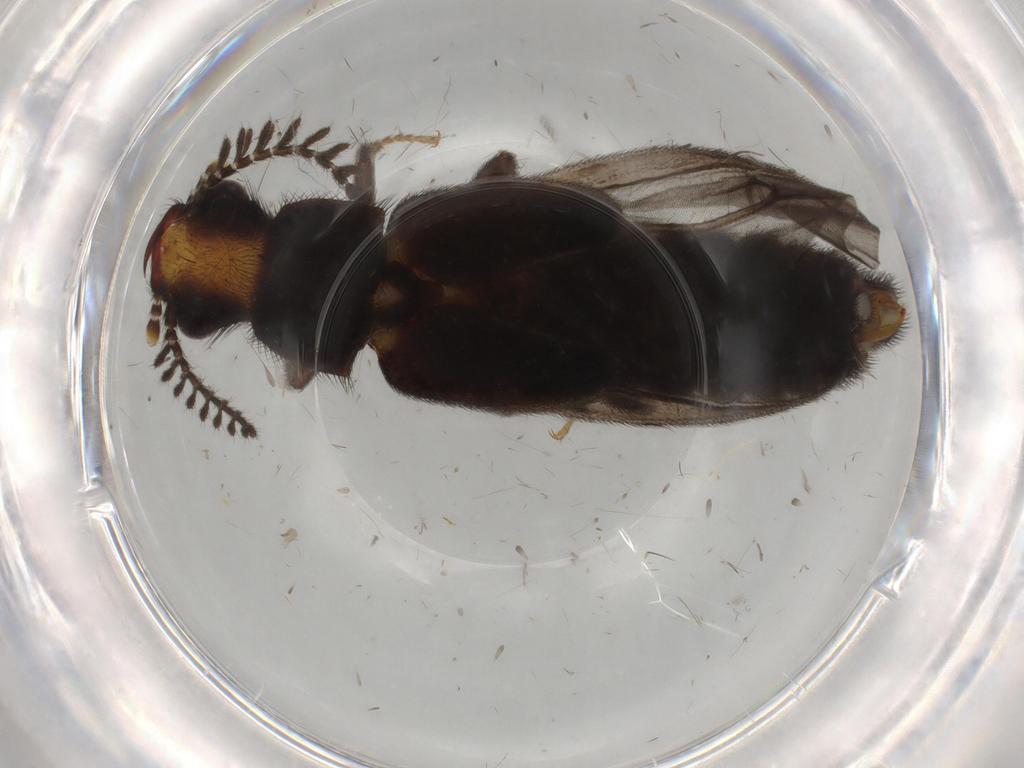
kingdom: Animalia
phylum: Arthropoda
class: Insecta
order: Coleoptera
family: Phengodidae
